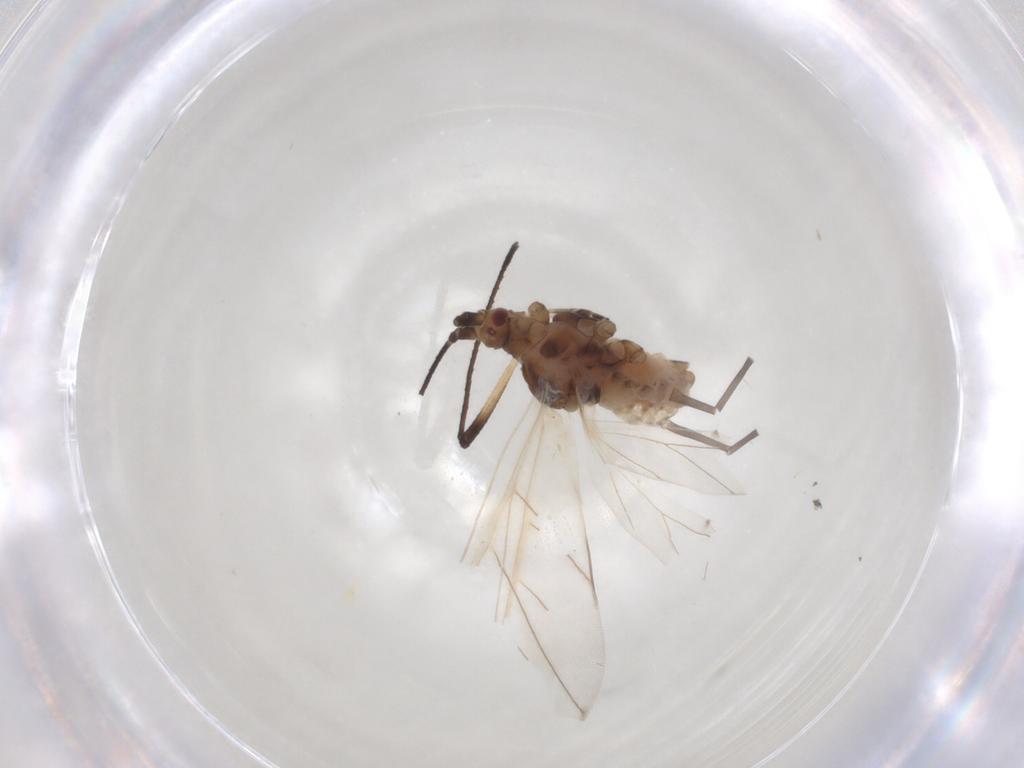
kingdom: Animalia
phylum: Arthropoda
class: Insecta
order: Hemiptera
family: Aphididae
